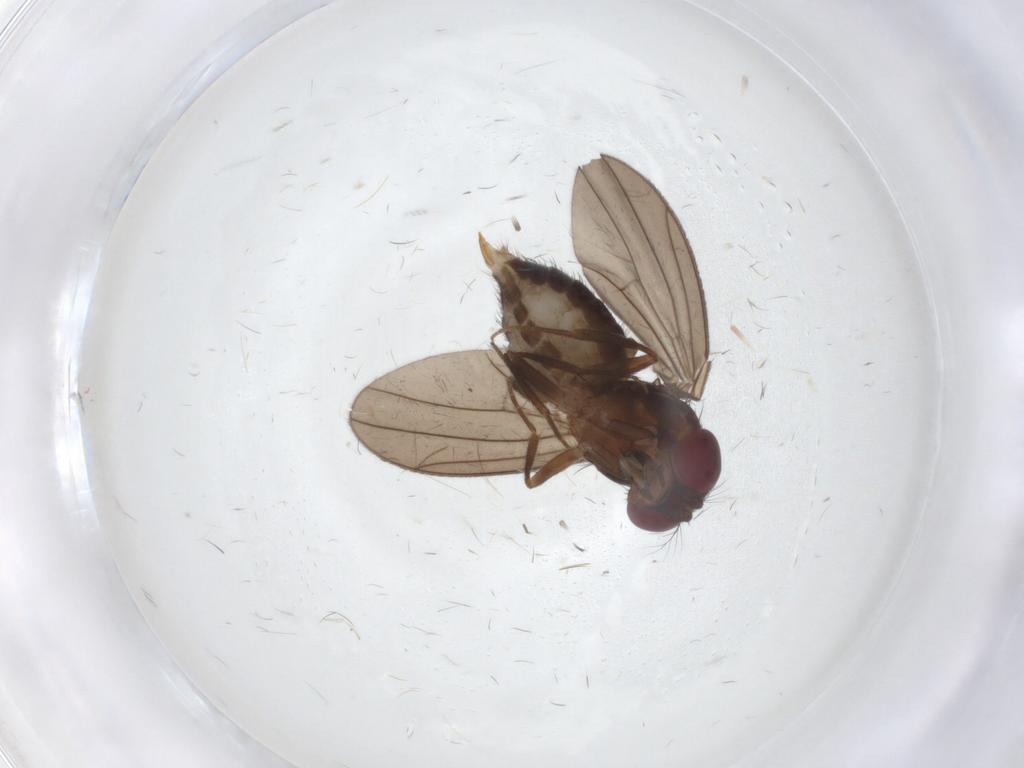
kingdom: Animalia
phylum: Arthropoda
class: Insecta
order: Diptera
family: Drosophilidae
